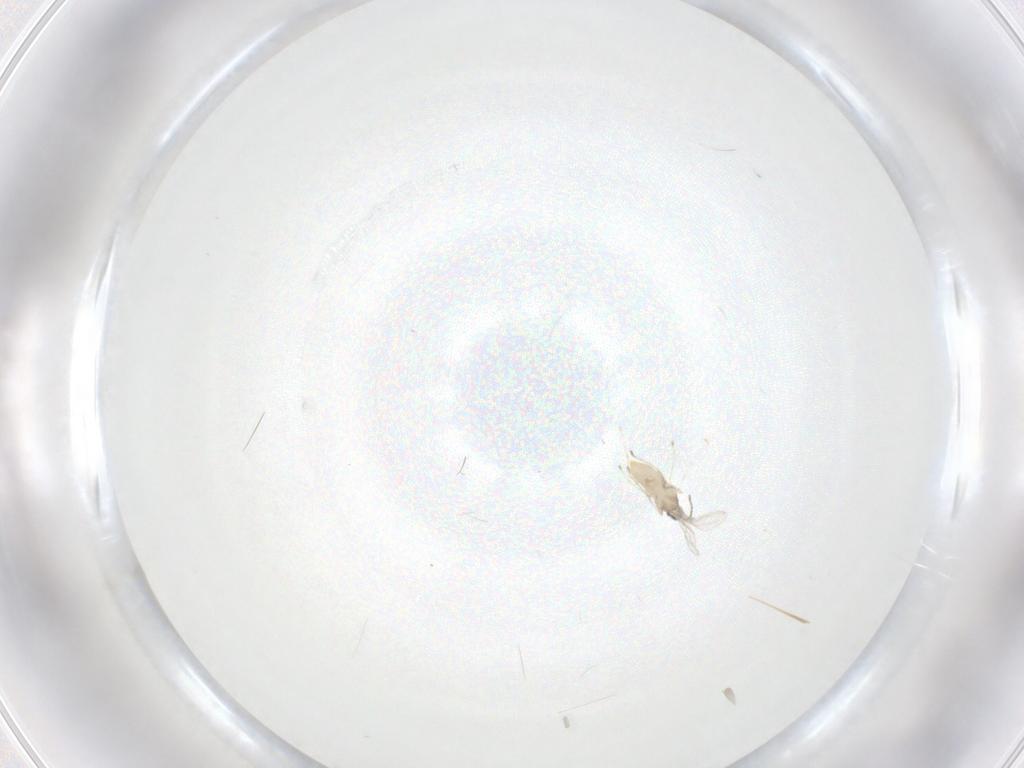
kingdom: Animalia
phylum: Arthropoda
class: Insecta
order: Diptera
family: Cecidomyiidae
